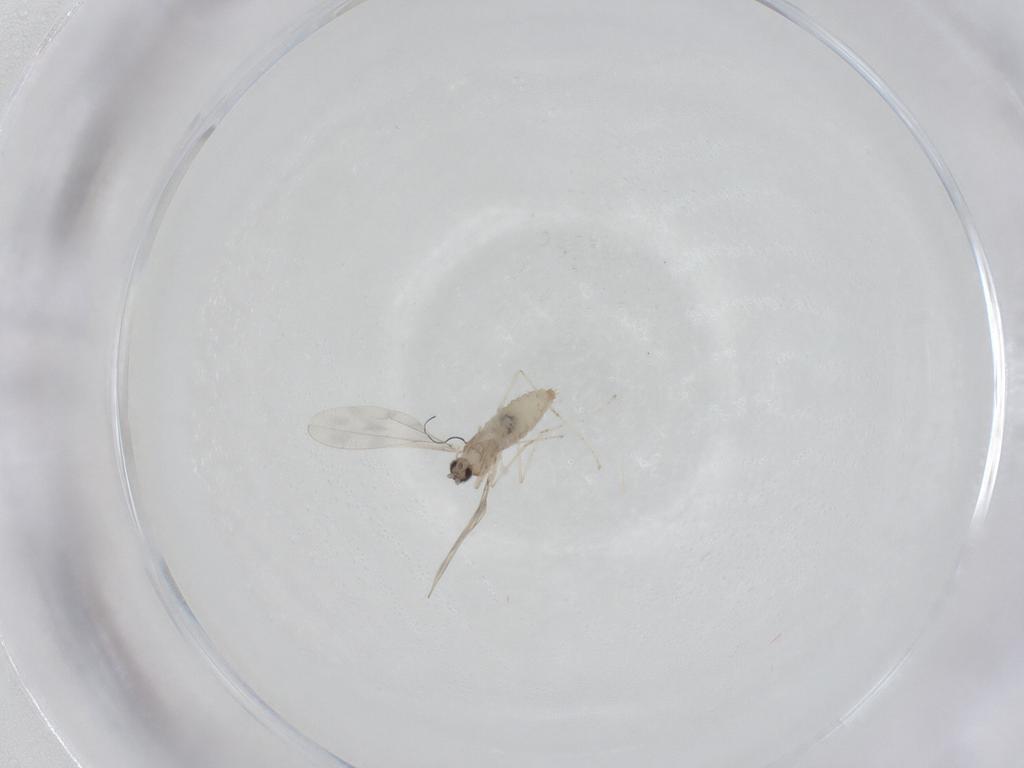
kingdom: Animalia
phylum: Arthropoda
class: Insecta
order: Diptera
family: Cecidomyiidae
